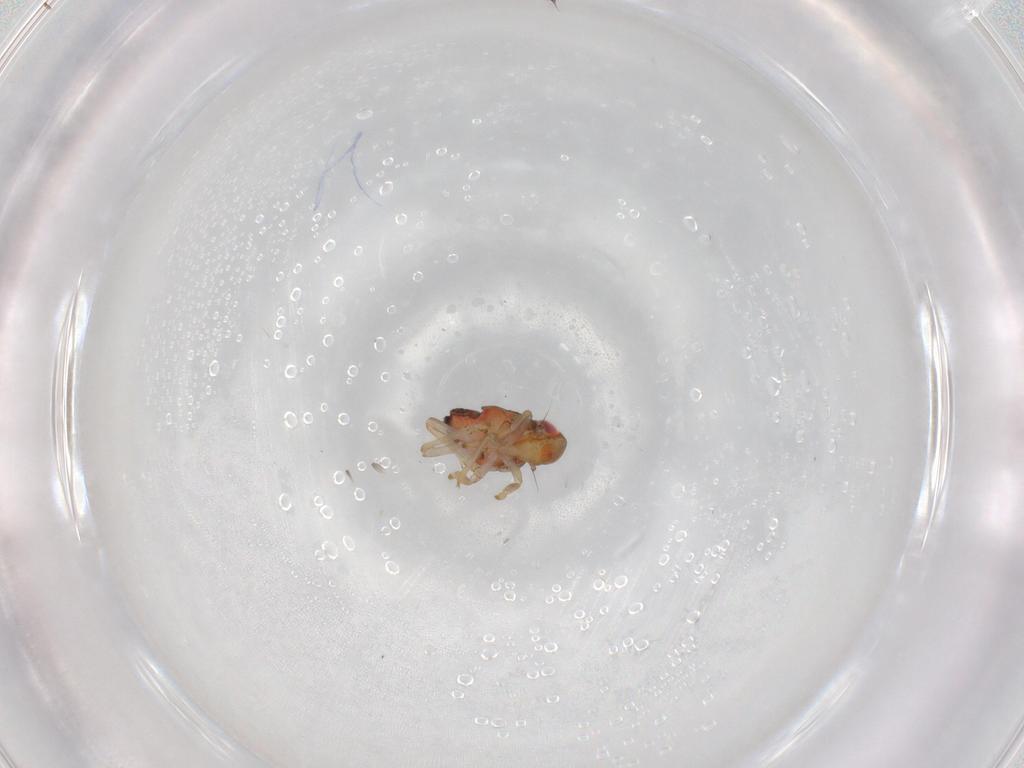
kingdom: Animalia
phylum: Arthropoda
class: Insecta
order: Hemiptera
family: Issidae
